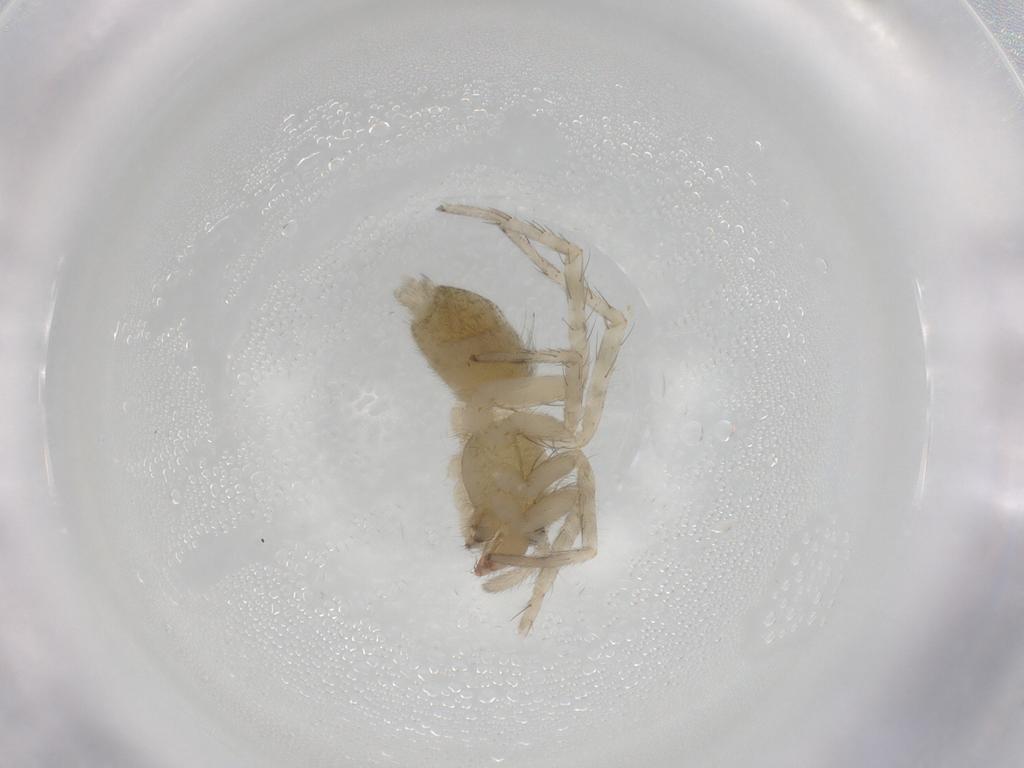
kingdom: Animalia
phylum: Arthropoda
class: Arachnida
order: Araneae
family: Anyphaenidae
